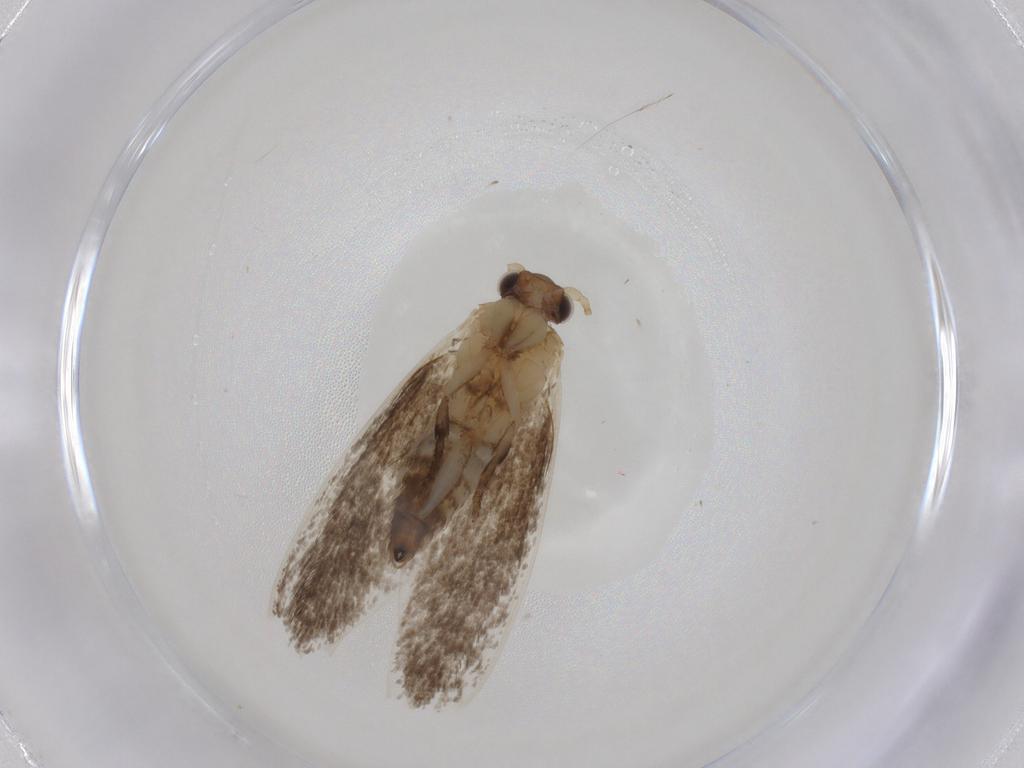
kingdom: Animalia
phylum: Arthropoda
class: Insecta
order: Lepidoptera
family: Tineidae
